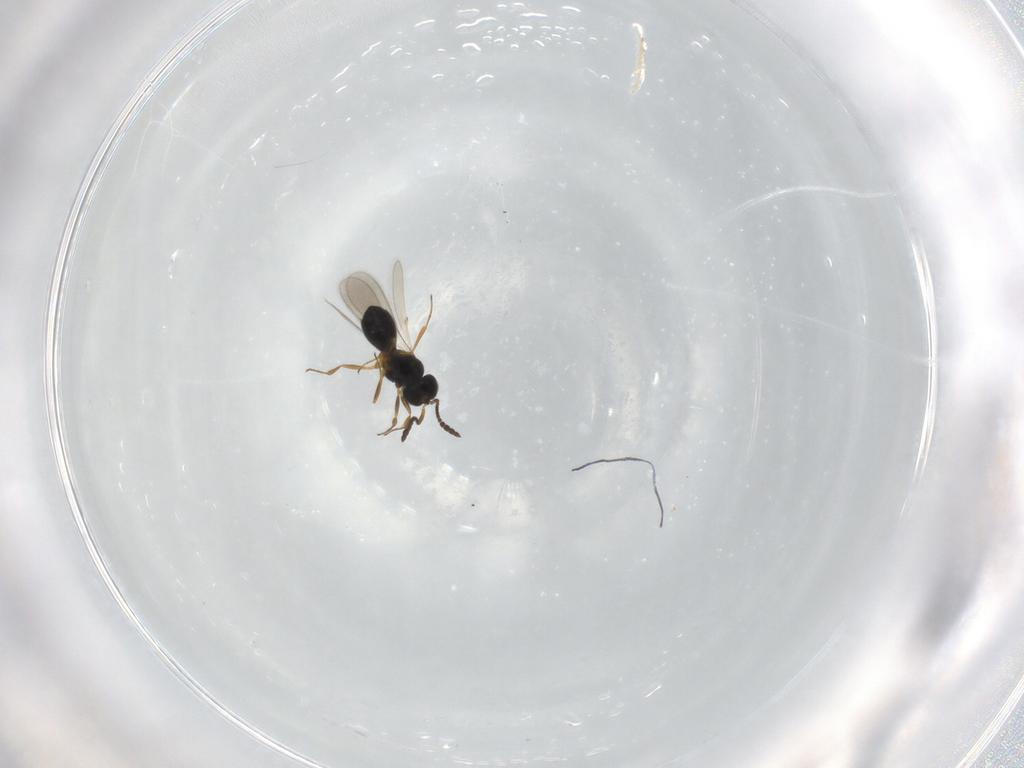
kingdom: Animalia
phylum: Arthropoda
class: Insecta
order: Hymenoptera
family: Scelionidae
